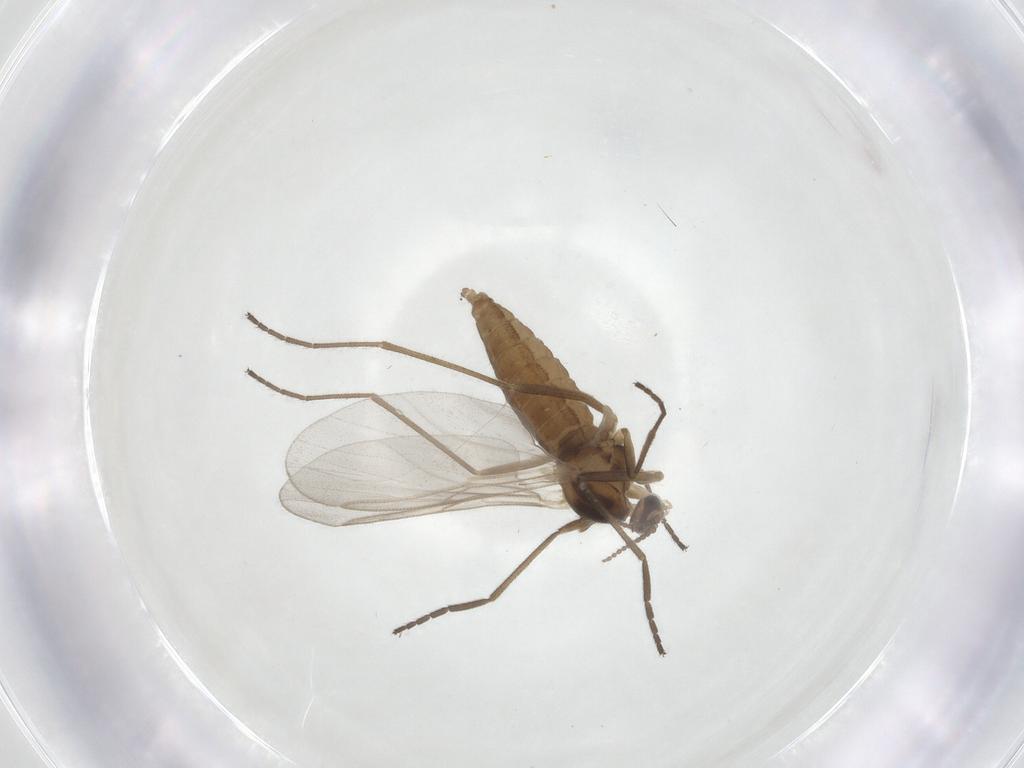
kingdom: Animalia
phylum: Arthropoda
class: Insecta
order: Diptera
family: Cecidomyiidae
